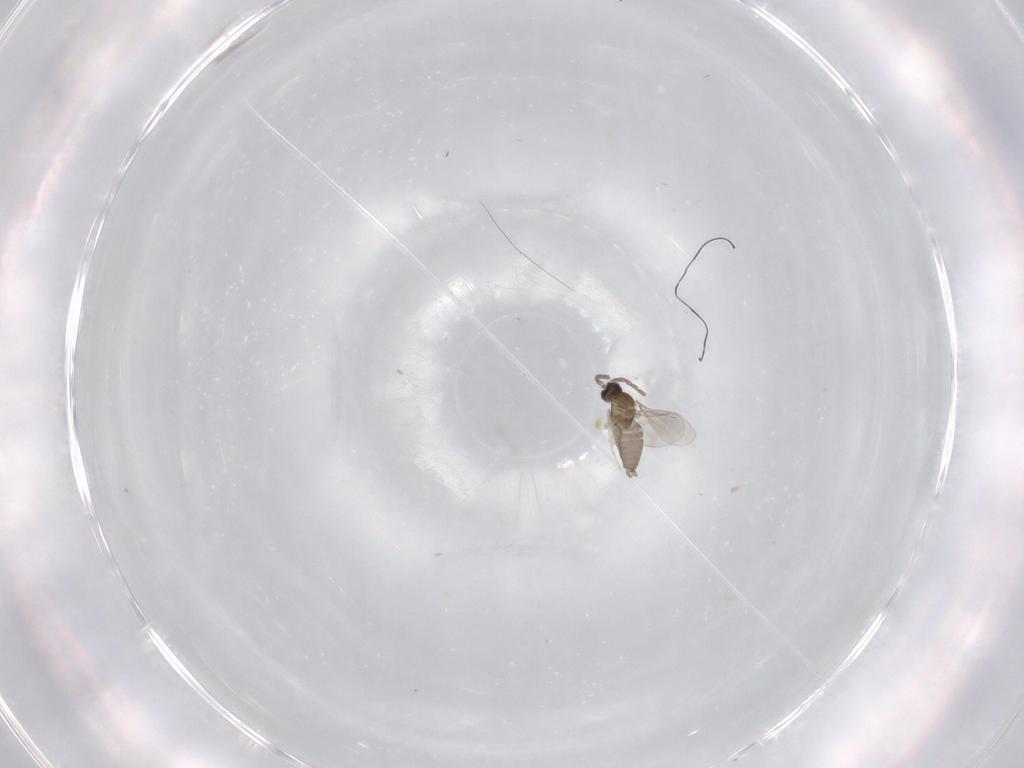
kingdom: Animalia
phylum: Arthropoda
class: Insecta
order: Diptera
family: Cecidomyiidae
